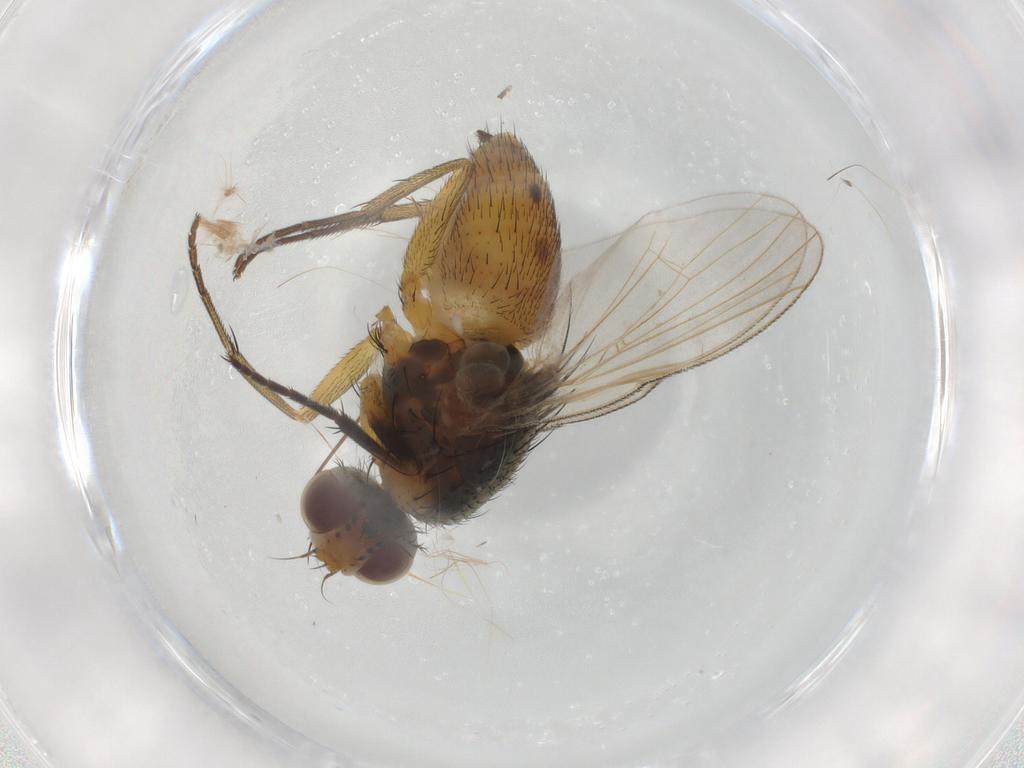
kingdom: Animalia
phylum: Arthropoda
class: Insecta
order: Diptera
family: Muscidae
